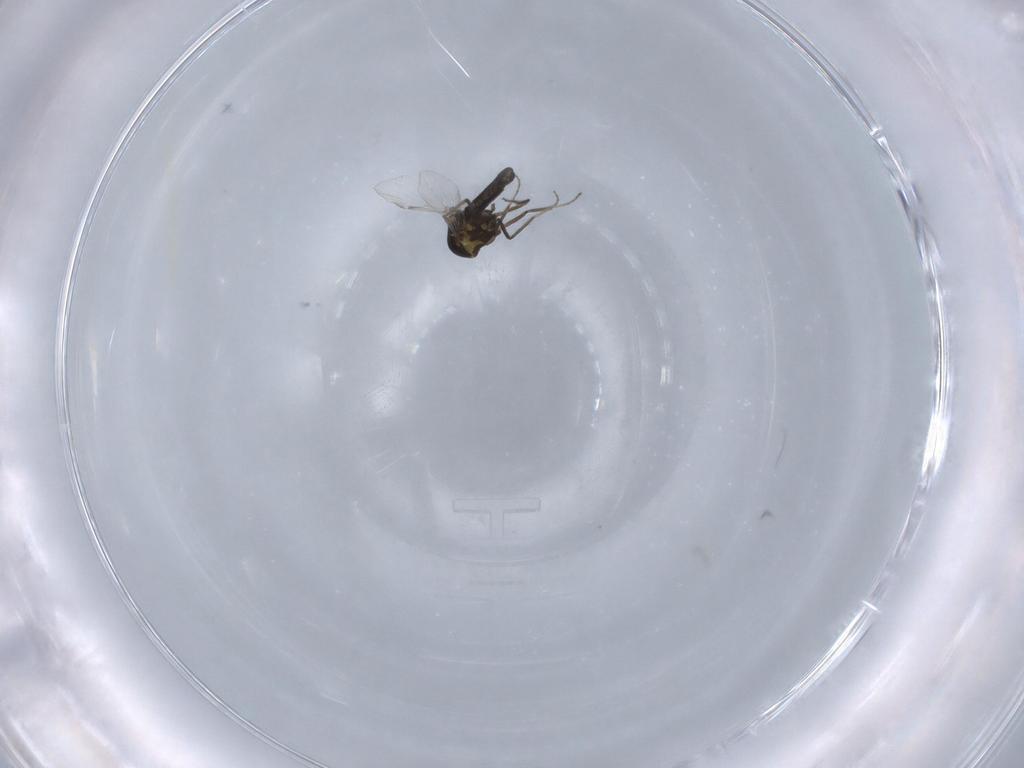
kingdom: Animalia
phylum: Arthropoda
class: Insecta
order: Diptera
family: Ceratopogonidae
